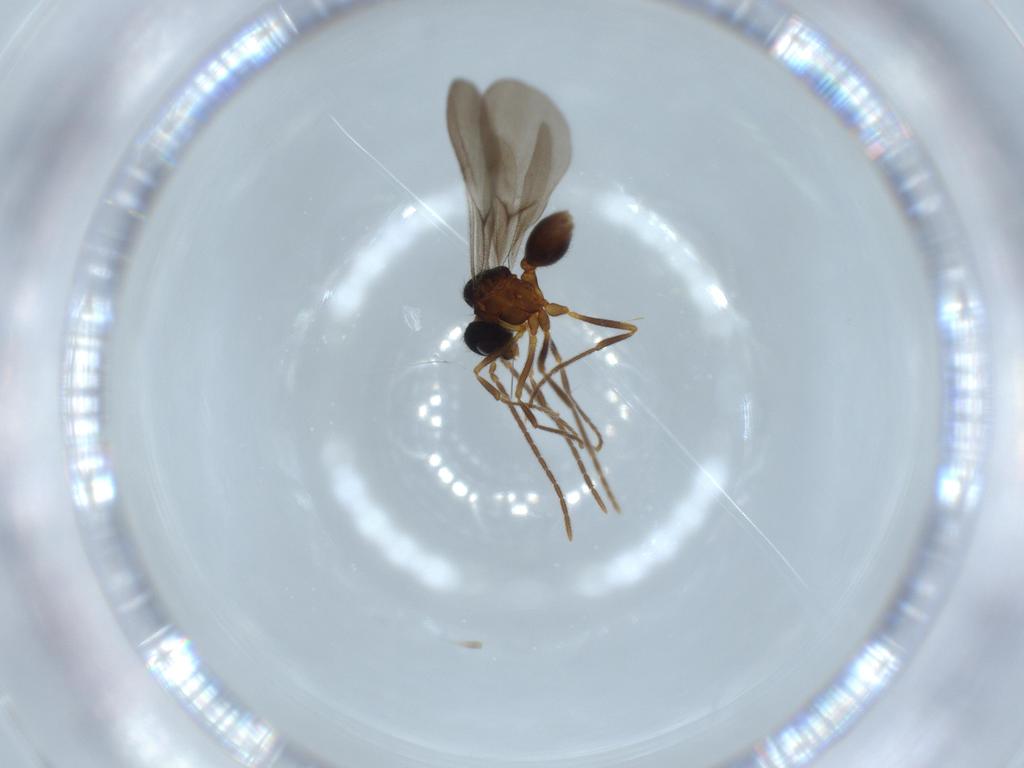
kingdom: Animalia
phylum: Arthropoda
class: Insecta
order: Hymenoptera
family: Formicidae
